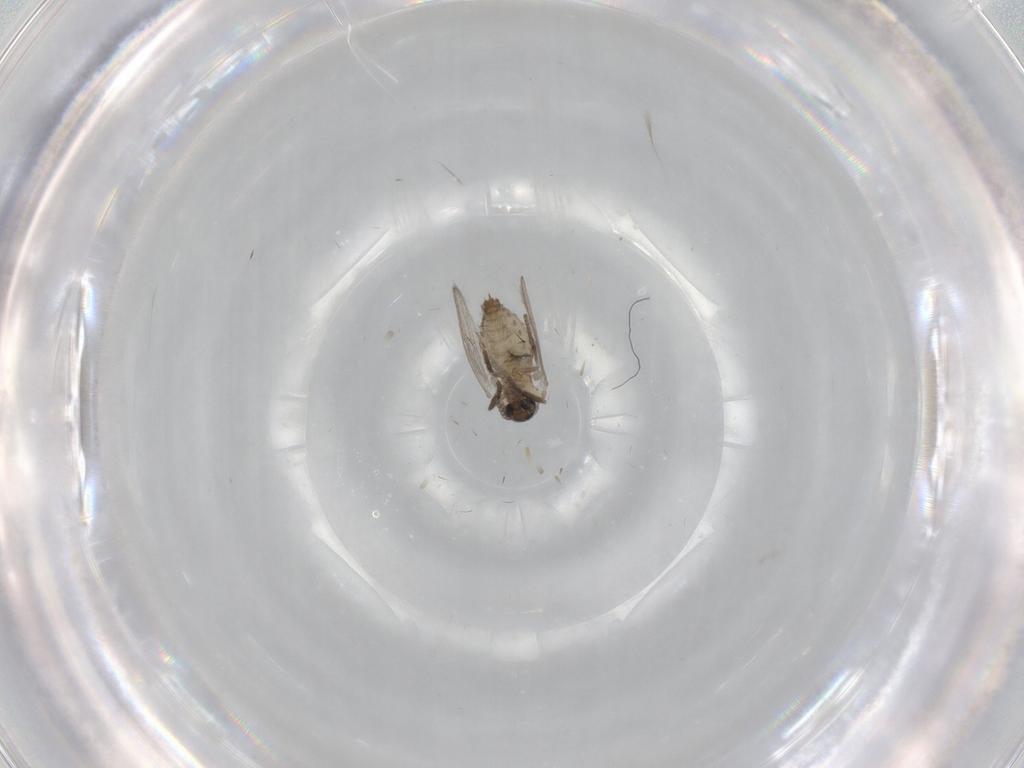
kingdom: Animalia
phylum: Arthropoda
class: Insecta
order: Diptera
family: Psychodidae
